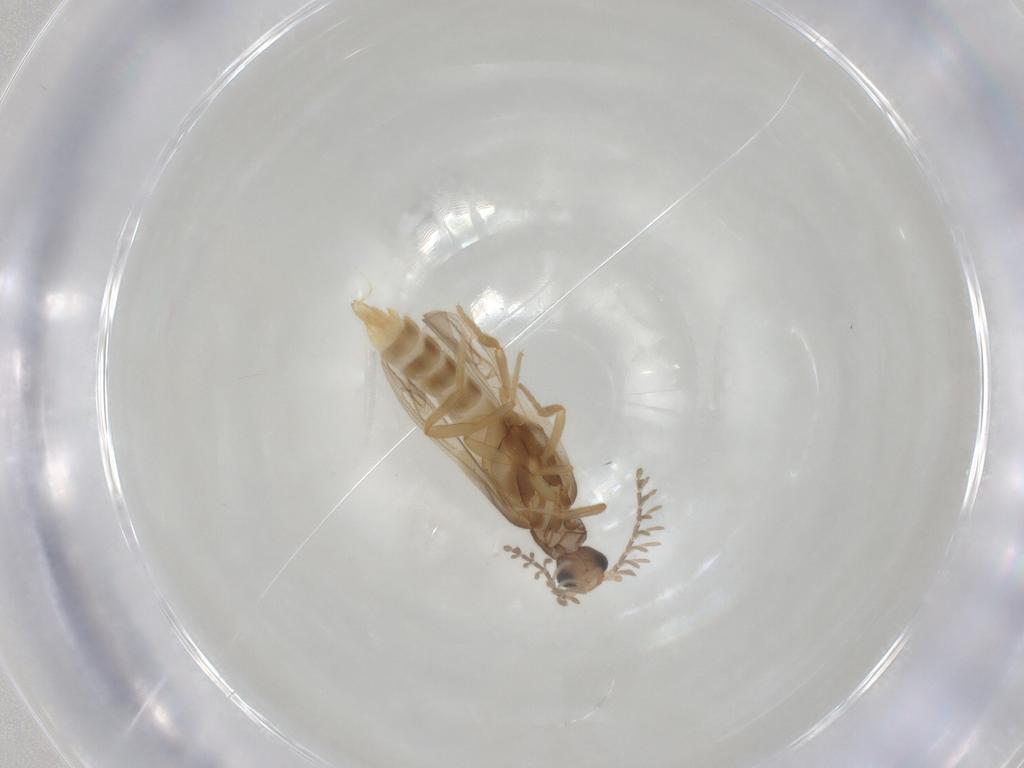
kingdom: Animalia
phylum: Arthropoda
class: Insecta
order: Coleoptera
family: Phengodidae
